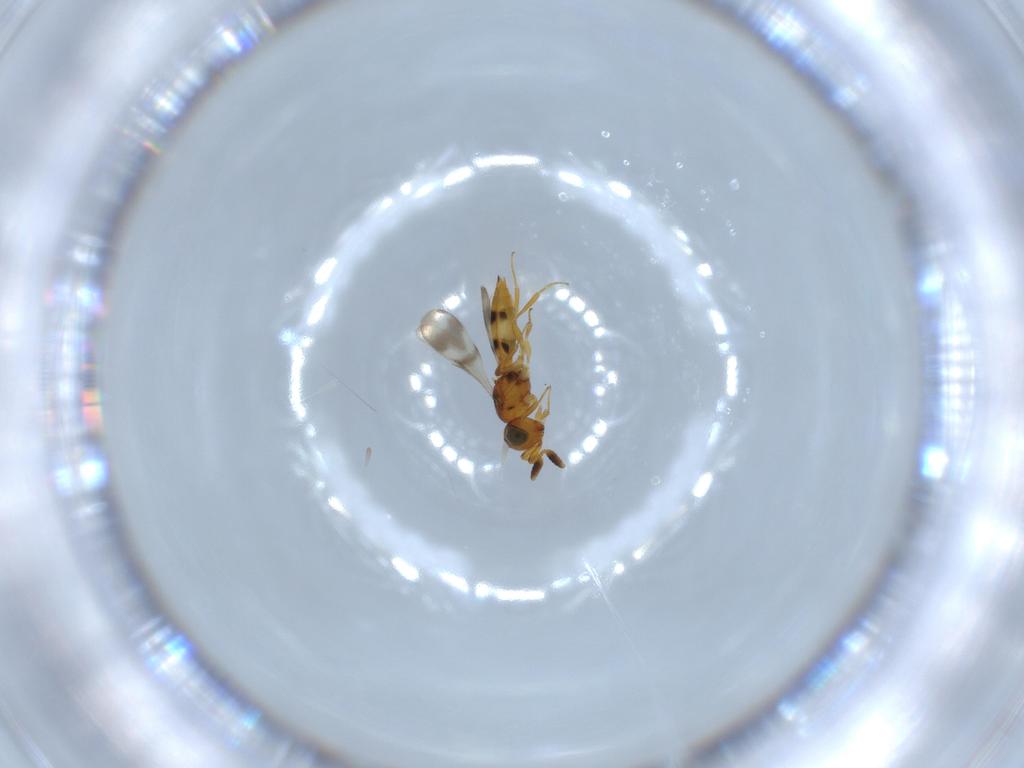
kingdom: Animalia
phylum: Arthropoda
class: Insecta
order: Hymenoptera
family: Scelionidae
